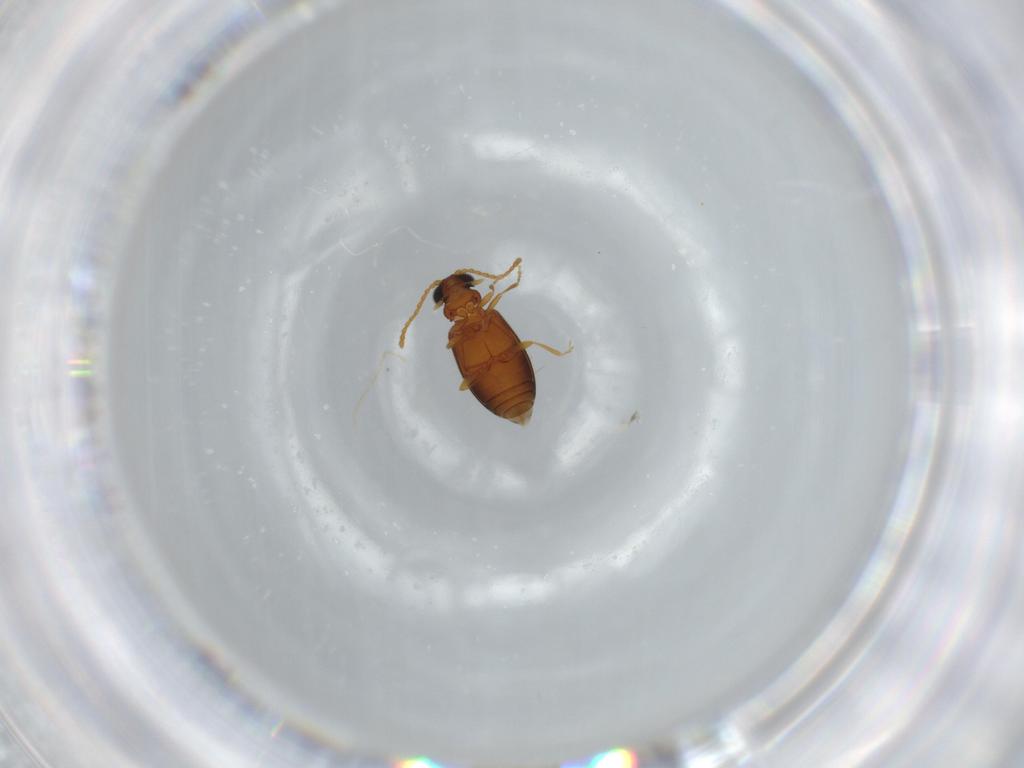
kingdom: Animalia
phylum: Arthropoda
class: Insecta
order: Coleoptera
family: Aderidae
